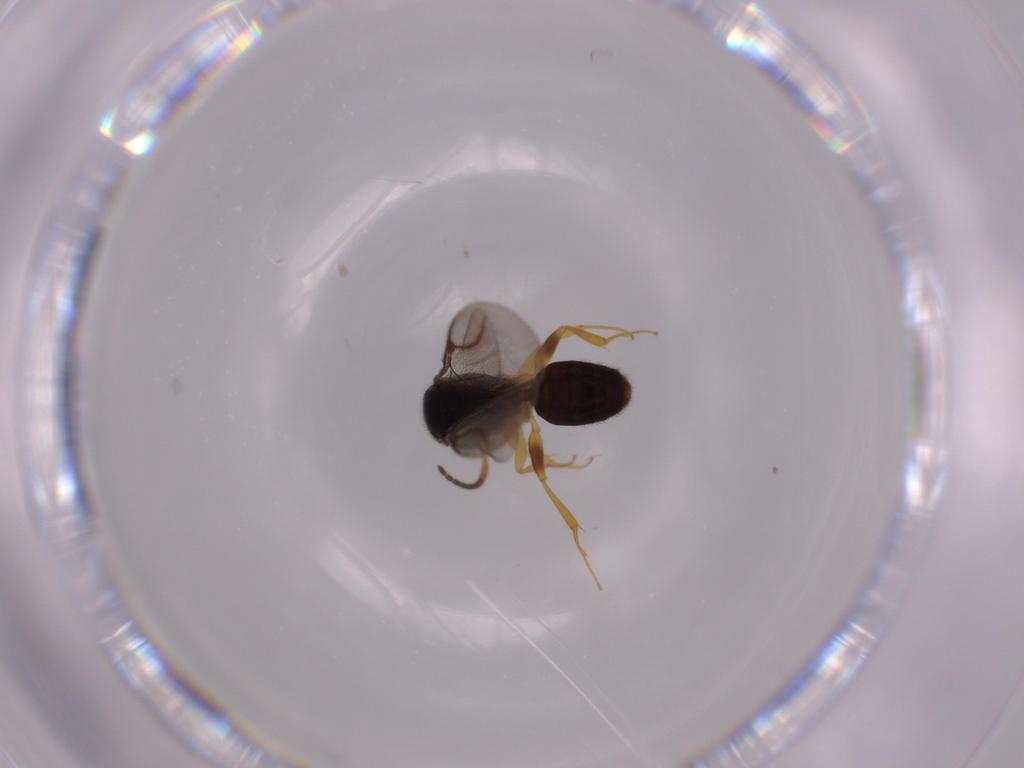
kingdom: Animalia
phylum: Arthropoda
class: Insecta
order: Hymenoptera
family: Bethylidae
